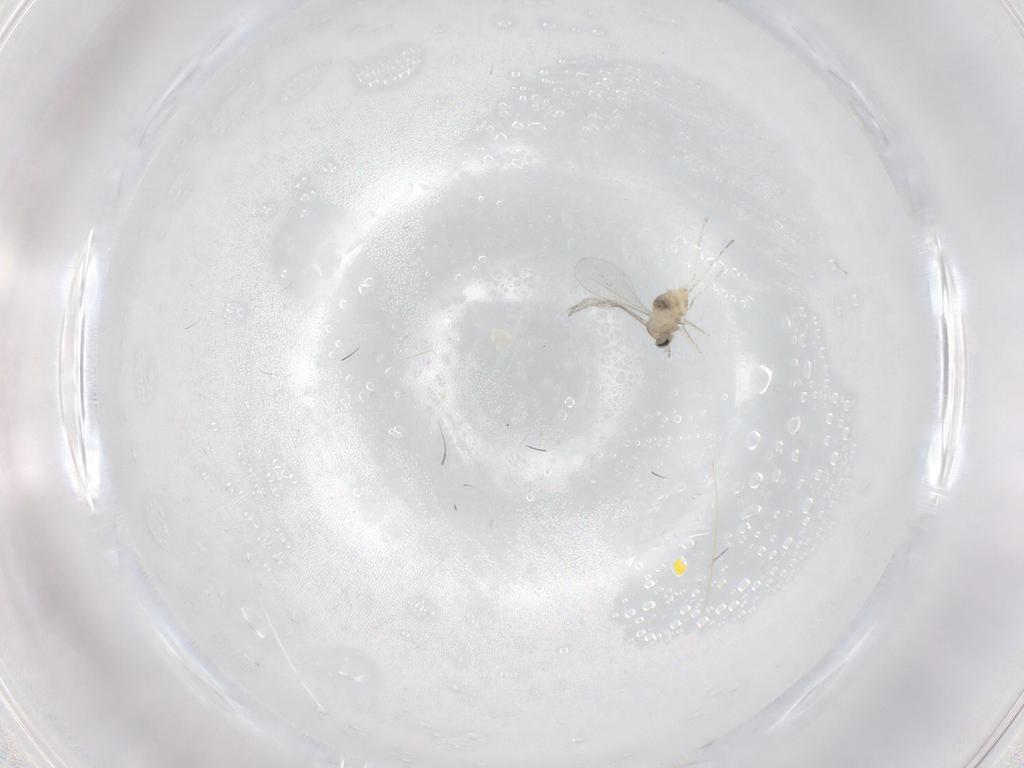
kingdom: Animalia
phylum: Arthropoda
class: Insecta
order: Diptera
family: Cecidomyiidae
